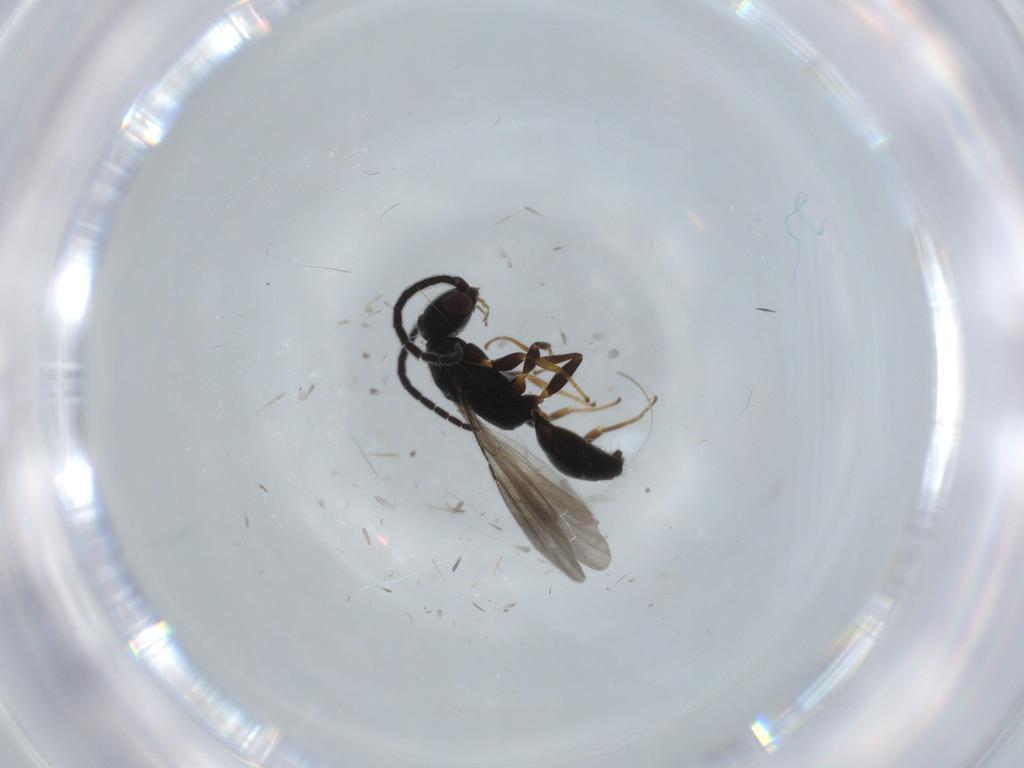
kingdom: Animalia
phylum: Arthropoda
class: Insecta
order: Hymenoptera
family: Bethylidae
